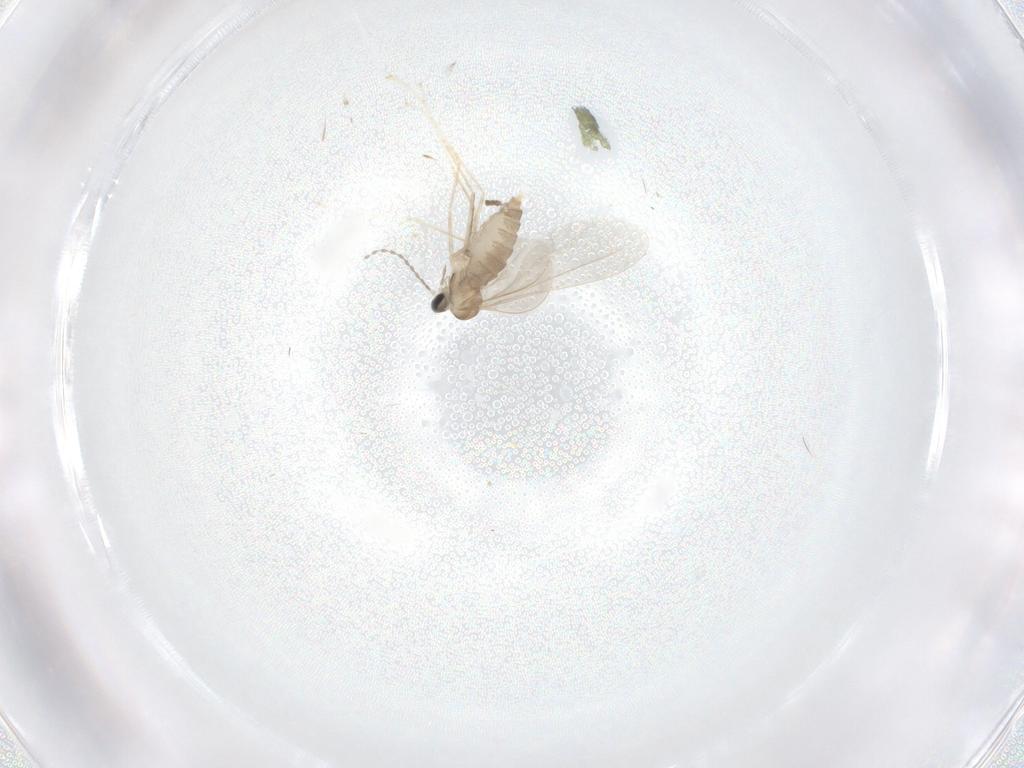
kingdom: Animalia
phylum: Arthropoda
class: Insecta
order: Diptera
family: Cecidomyiidae
